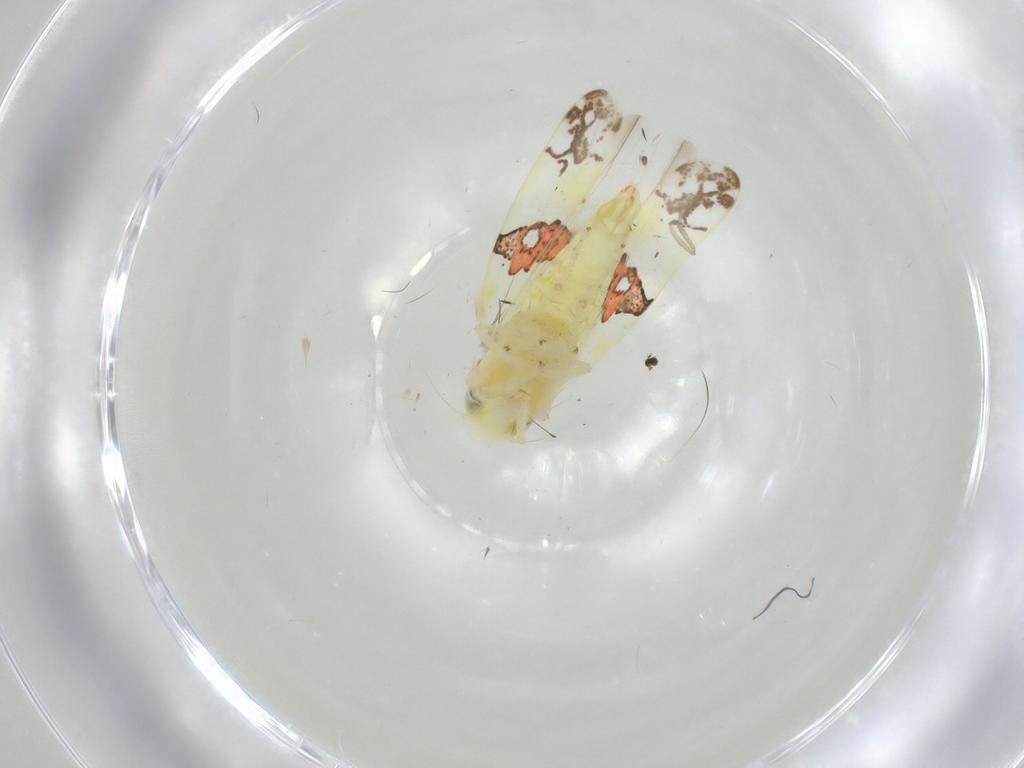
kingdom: Animalia
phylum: Arthropoda
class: Insecta
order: Hemiptera
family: Cicadellidae
